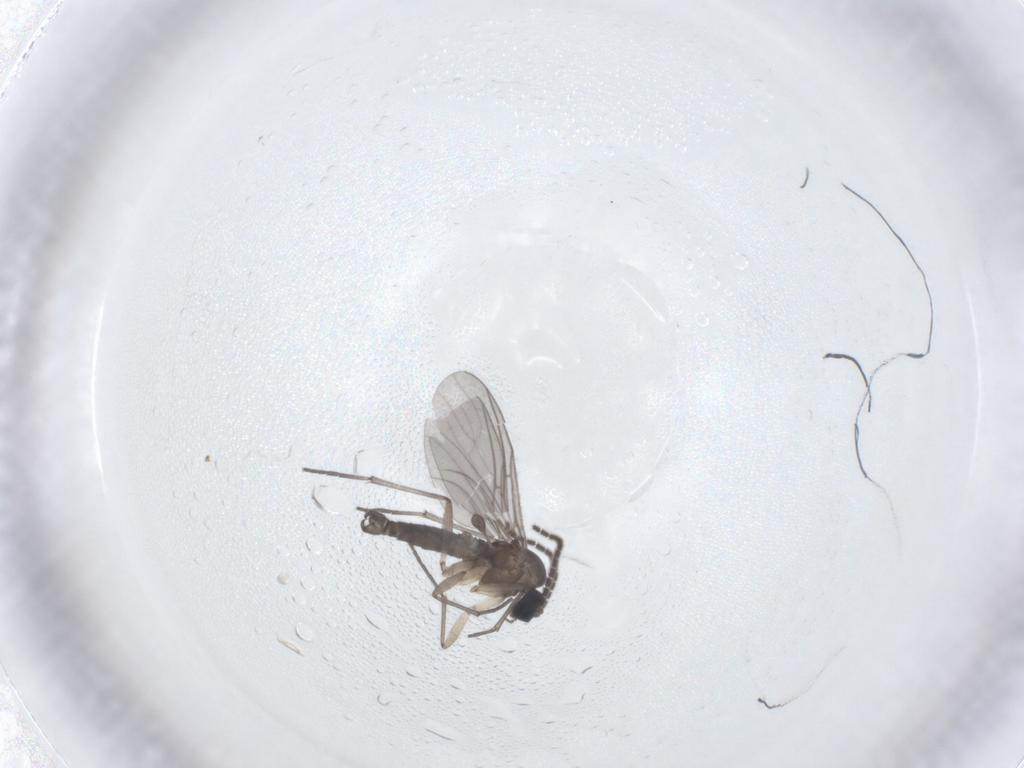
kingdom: Animalia
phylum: Arthropoda
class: Insecta
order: Diptera
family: Sciaridae
